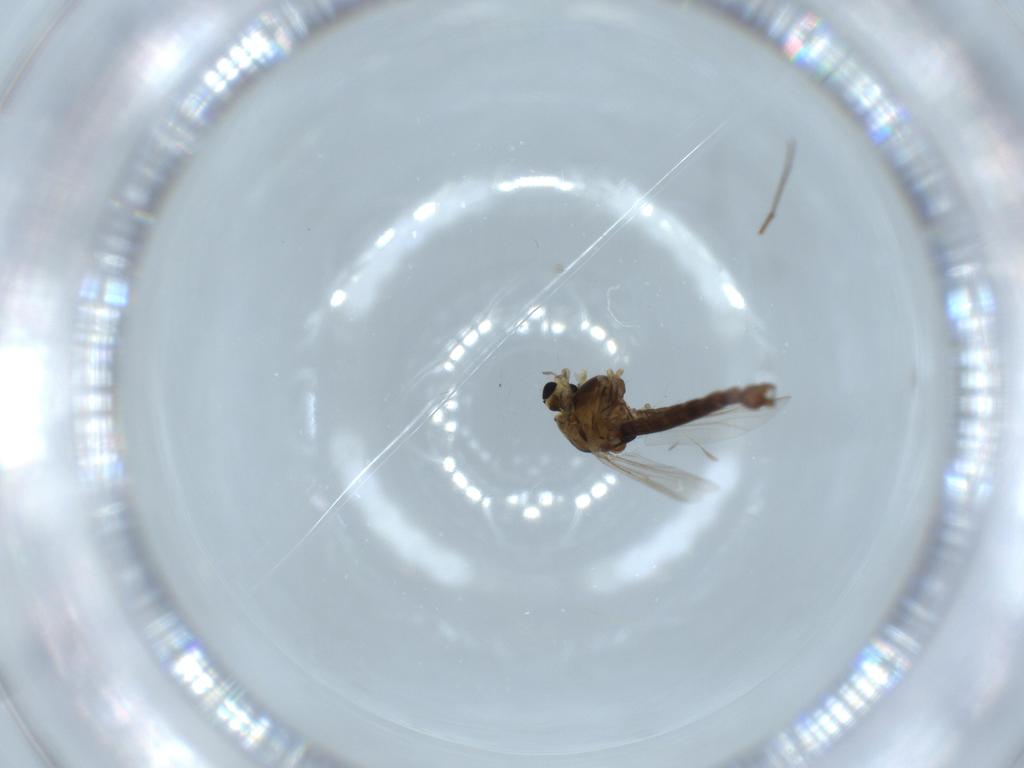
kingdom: Animalia
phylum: Arthropoda
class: Insecta
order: Diptera
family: Chironomidae
